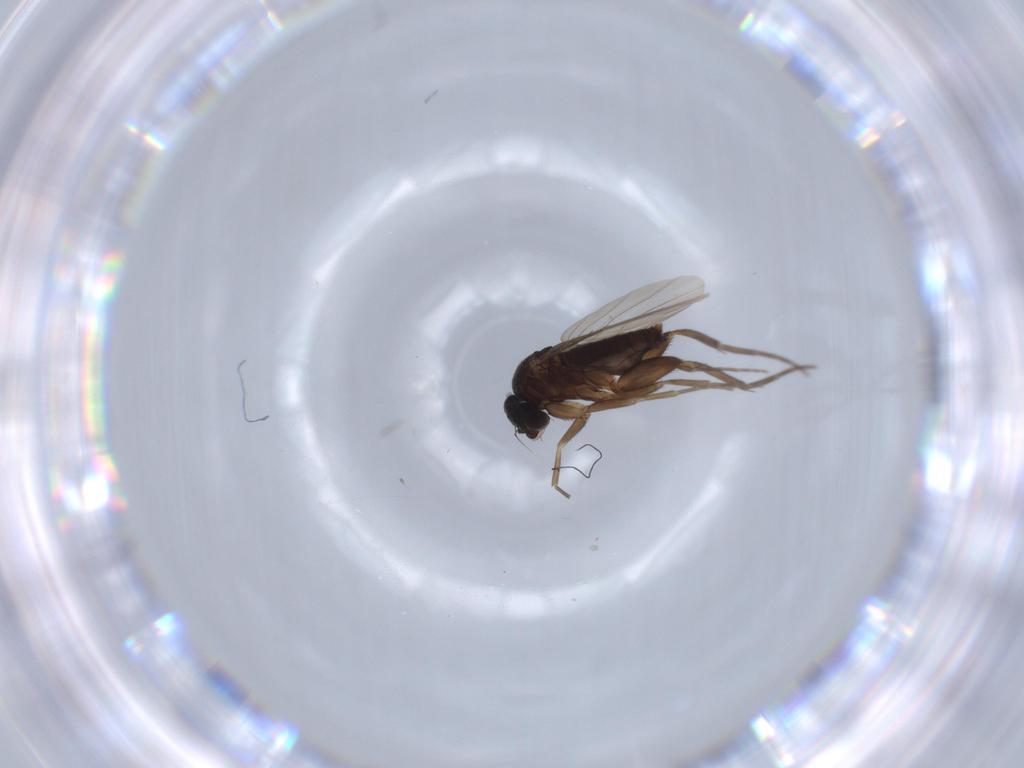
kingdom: Animalia
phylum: Arthropoda
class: Insecta
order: Diptera
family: Phoridae
